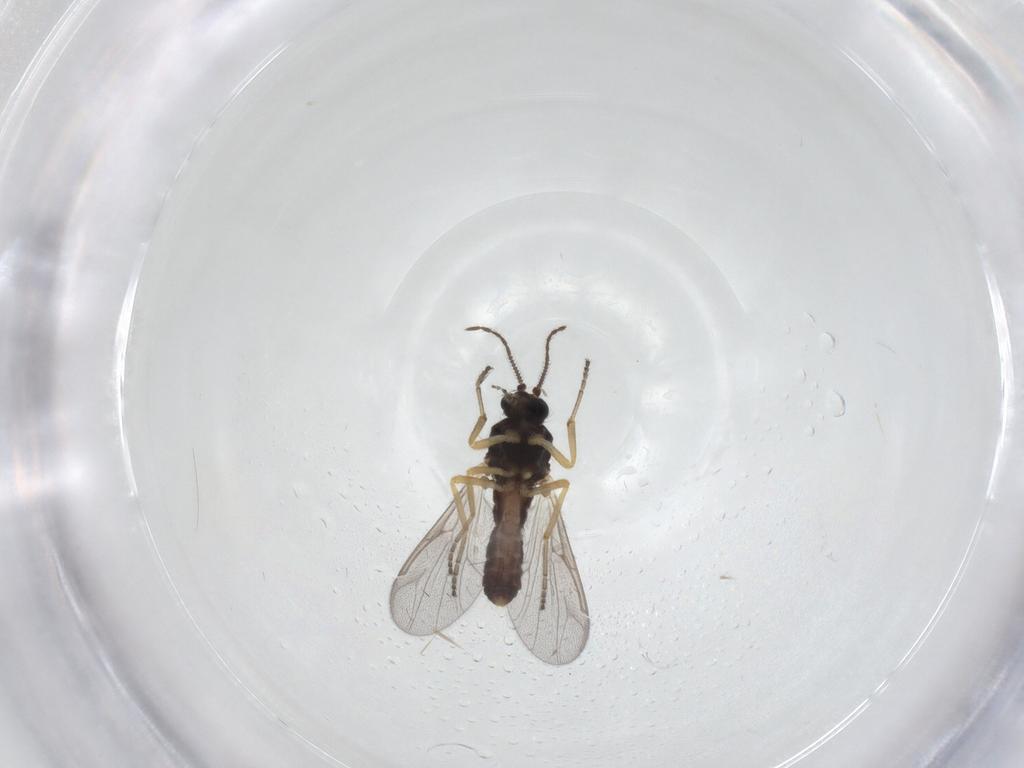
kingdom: Animalia
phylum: Arthropoda
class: Insecta
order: Diptera
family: Ceratopogonidae
